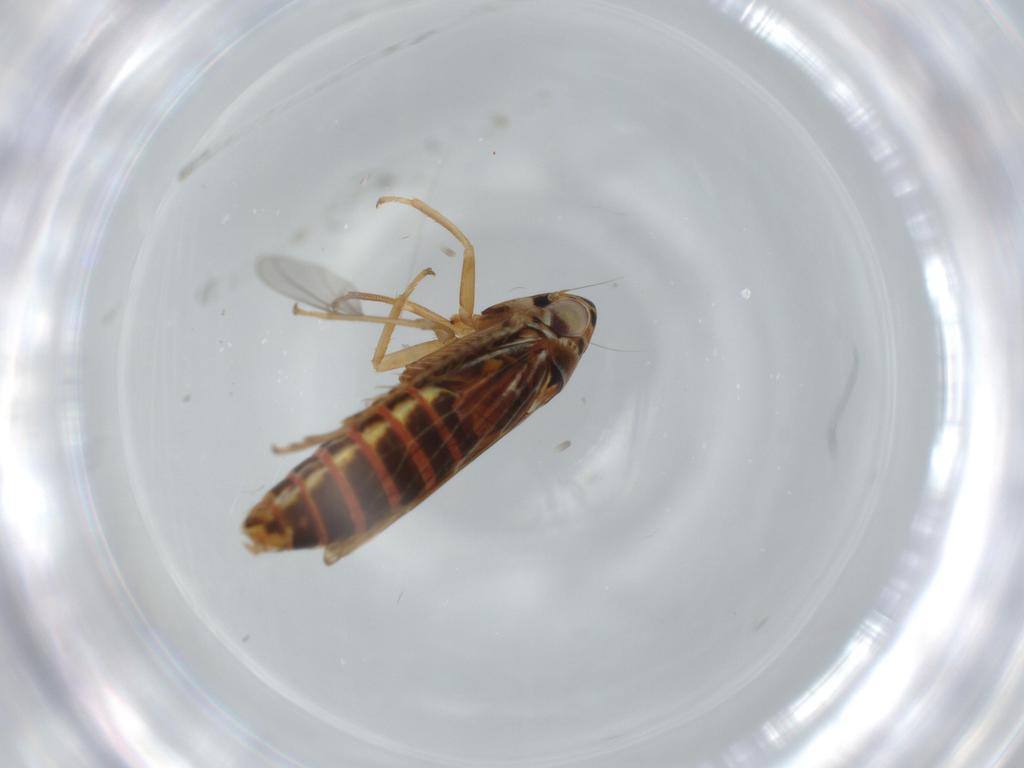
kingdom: Animalia
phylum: Arthropoda
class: Insecta
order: Hemiptera
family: Cicadellidae
